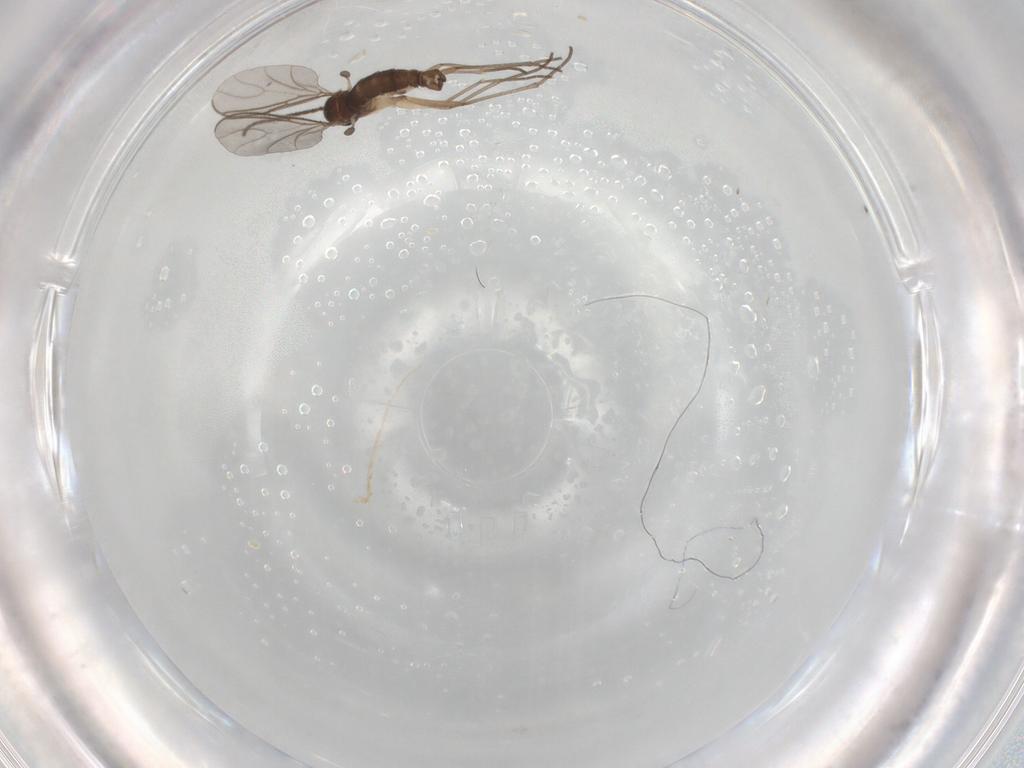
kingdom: Animalia
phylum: Arthropoda
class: Insecta
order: Diptera
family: Sciaridae
